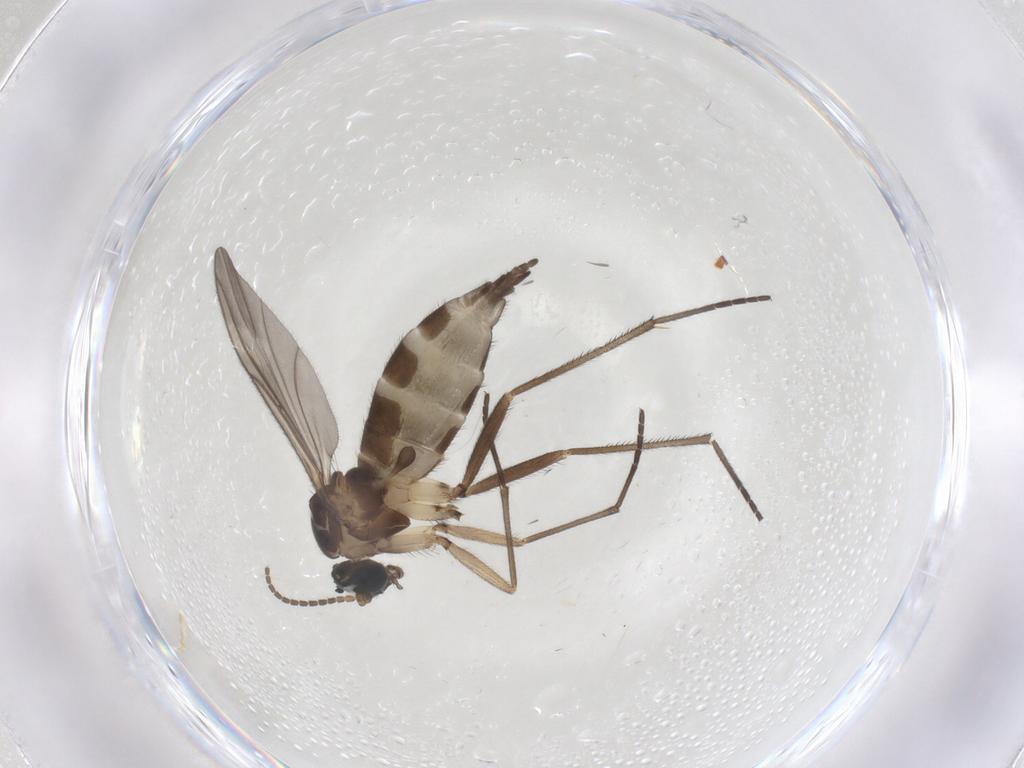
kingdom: Animalia
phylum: Arthropoda
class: Insecta
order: Diptera
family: Sciaridae
